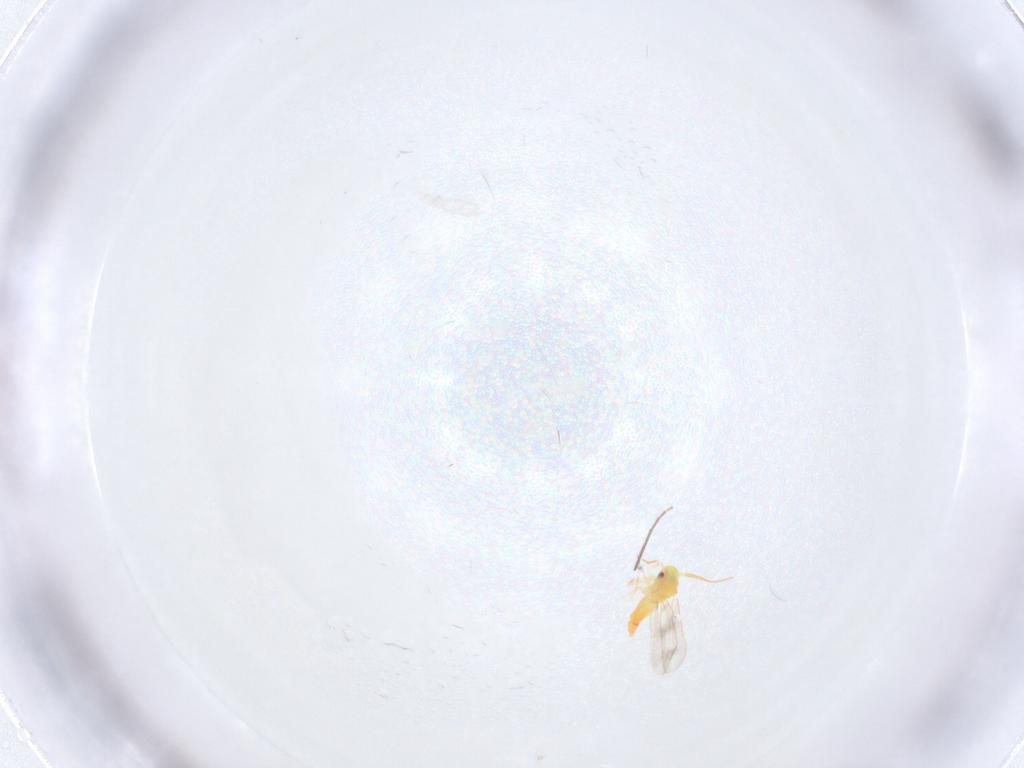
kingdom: Animalia
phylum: Arthropoda
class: Insecta
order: Hemiptera
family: Aleyrodidae
